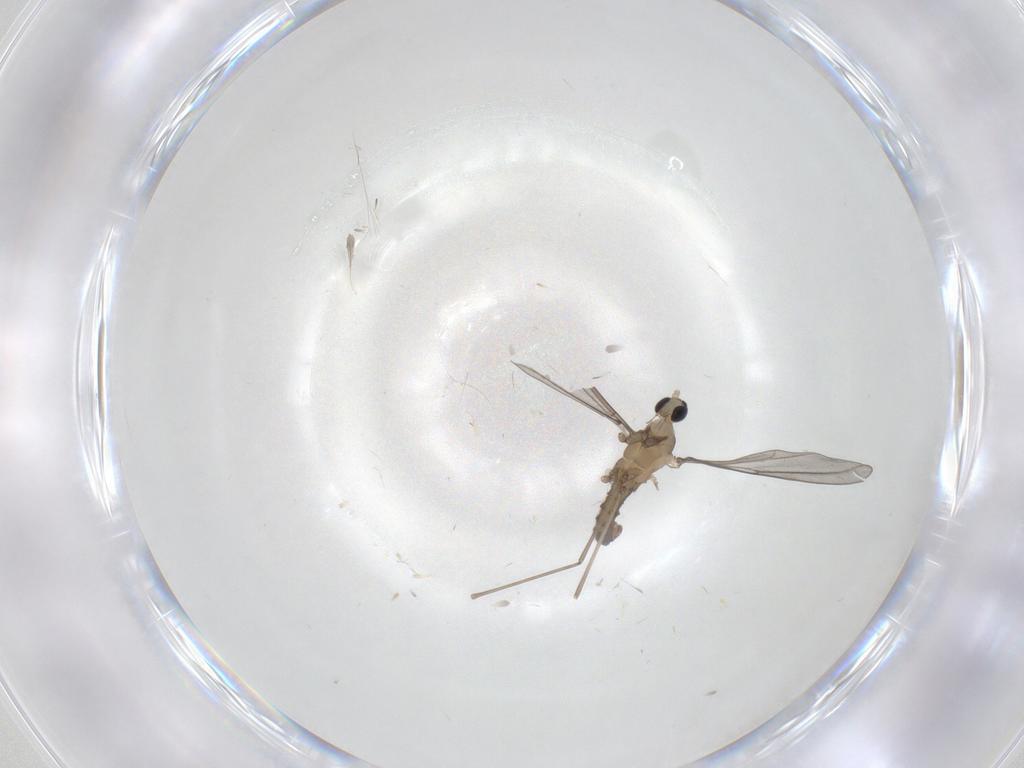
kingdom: Animalia
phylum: Arthropoda
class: Insecta
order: Diptera
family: Cecidomyiidae
